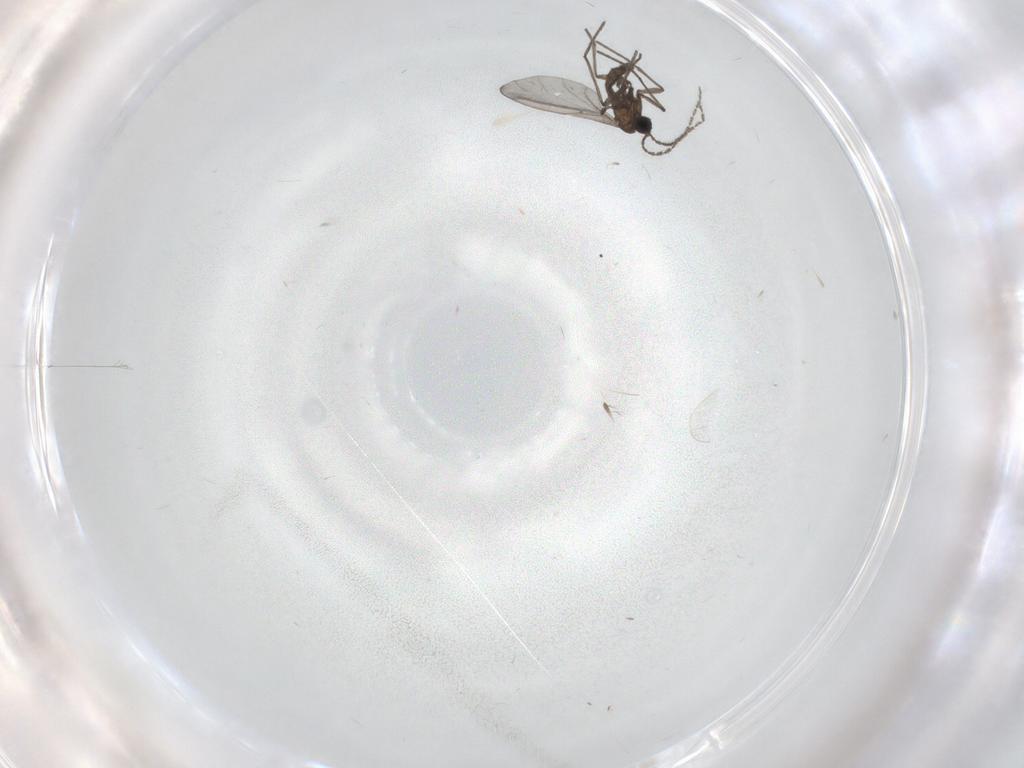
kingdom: Animalia
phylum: Arthropoda
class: Insecta
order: Diptera
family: Sciaridae
